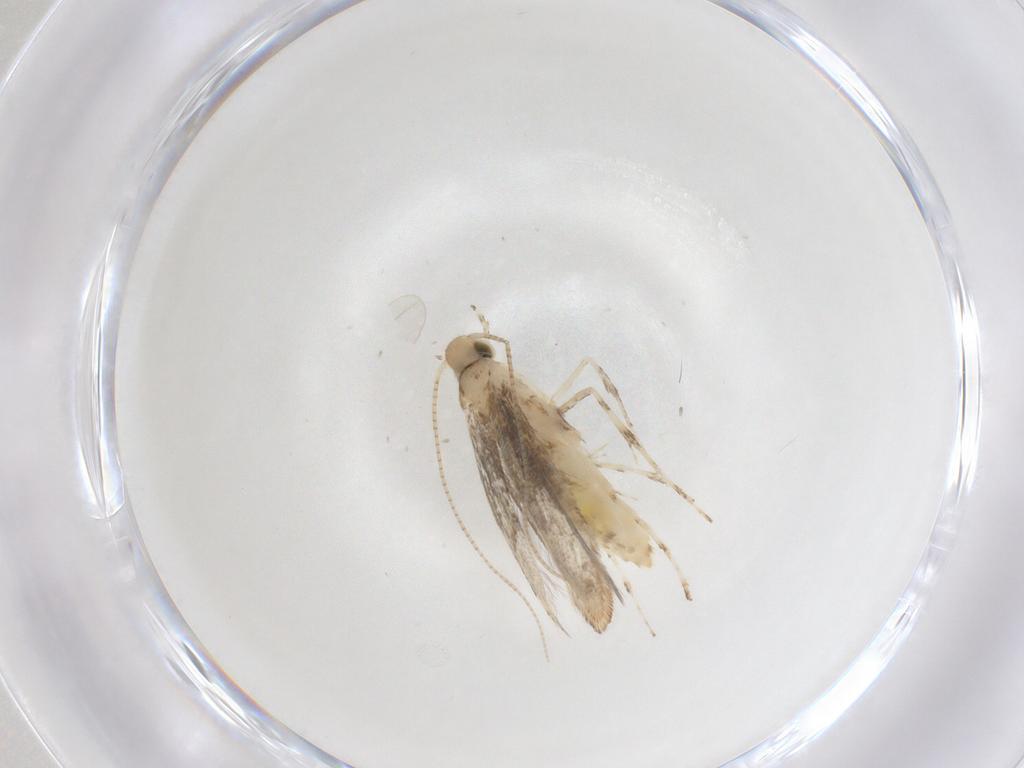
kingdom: Animalia
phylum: Arthropoda
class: Insecta
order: Lepidoptera
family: Gracillariidae
